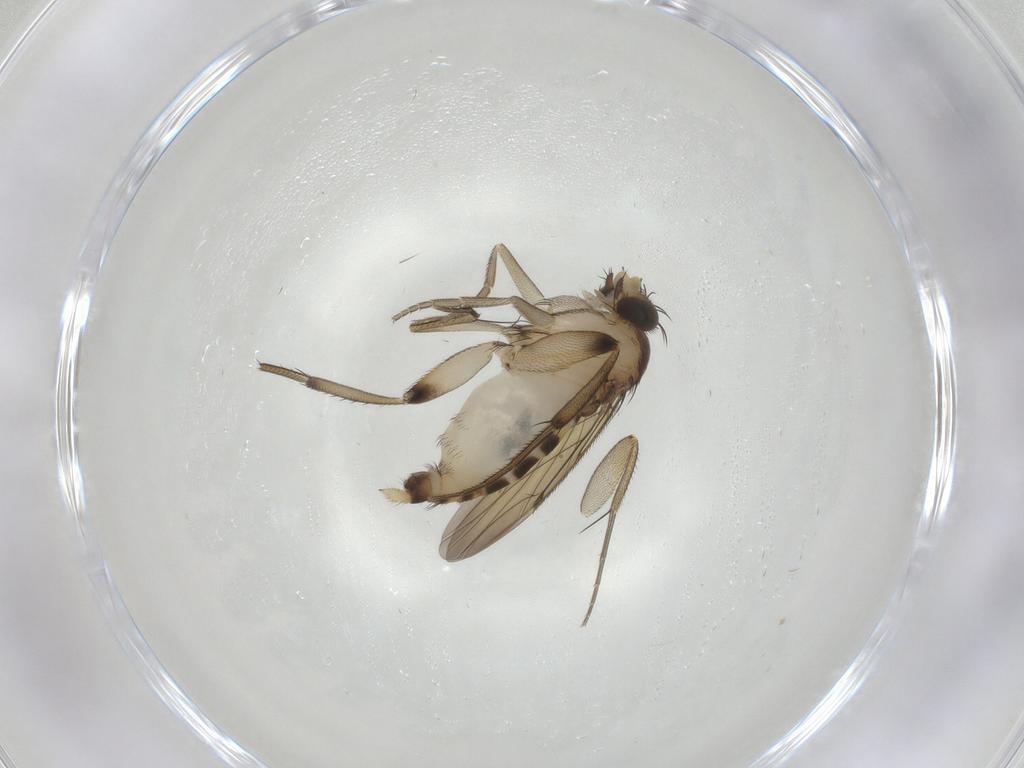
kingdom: Animalia
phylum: Arthropoda
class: Insecta
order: Diptera
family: Phoridae
